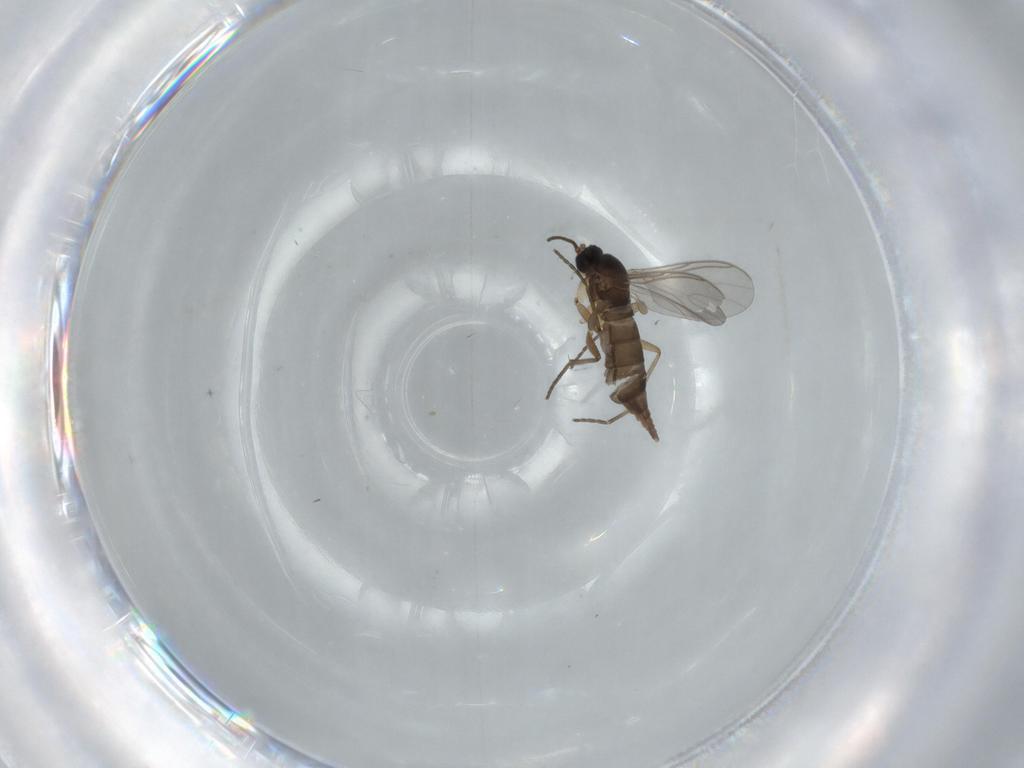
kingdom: Animalia
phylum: Arthropoda
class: Insecta
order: Diptera
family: Sciaridae
